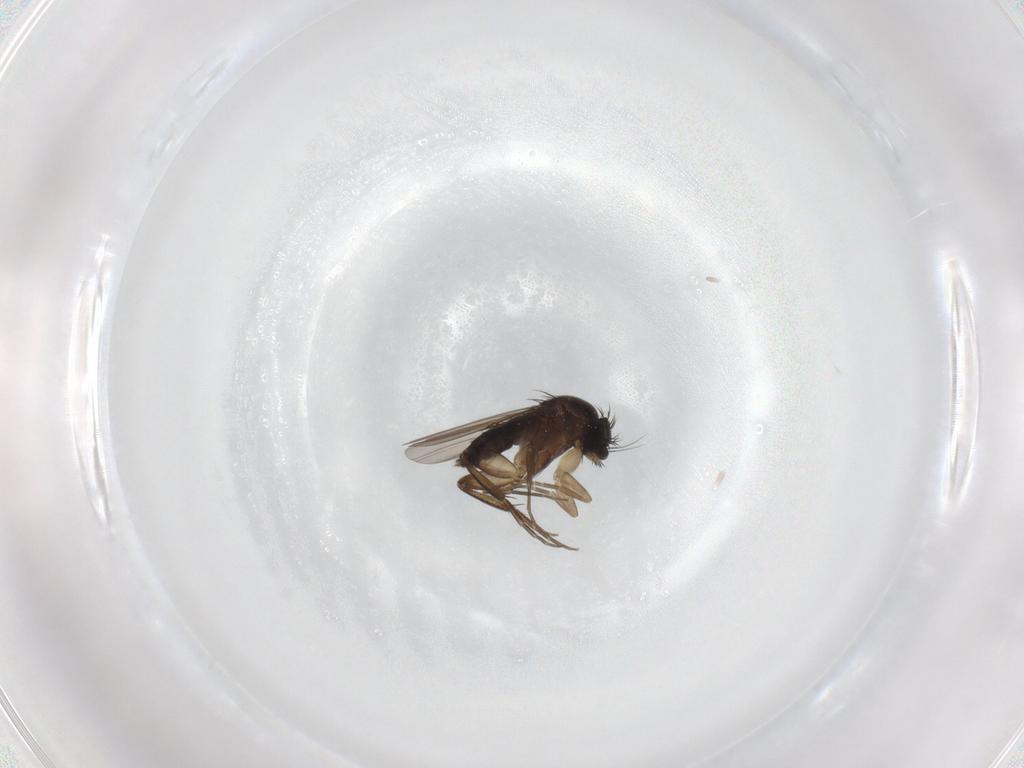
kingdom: Animalia
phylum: Arthropoda
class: Insecta
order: Diptera
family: Phoridae
